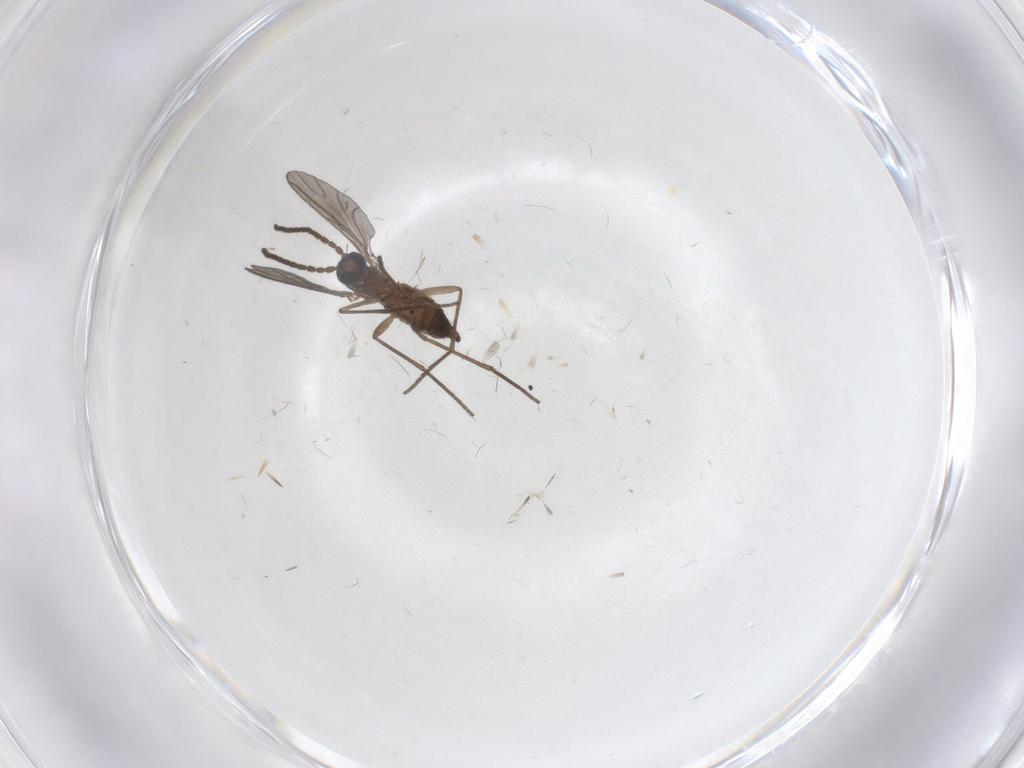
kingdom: Animalia
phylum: Arthropoda
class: Insecta
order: Diptera
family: Sciaridae
